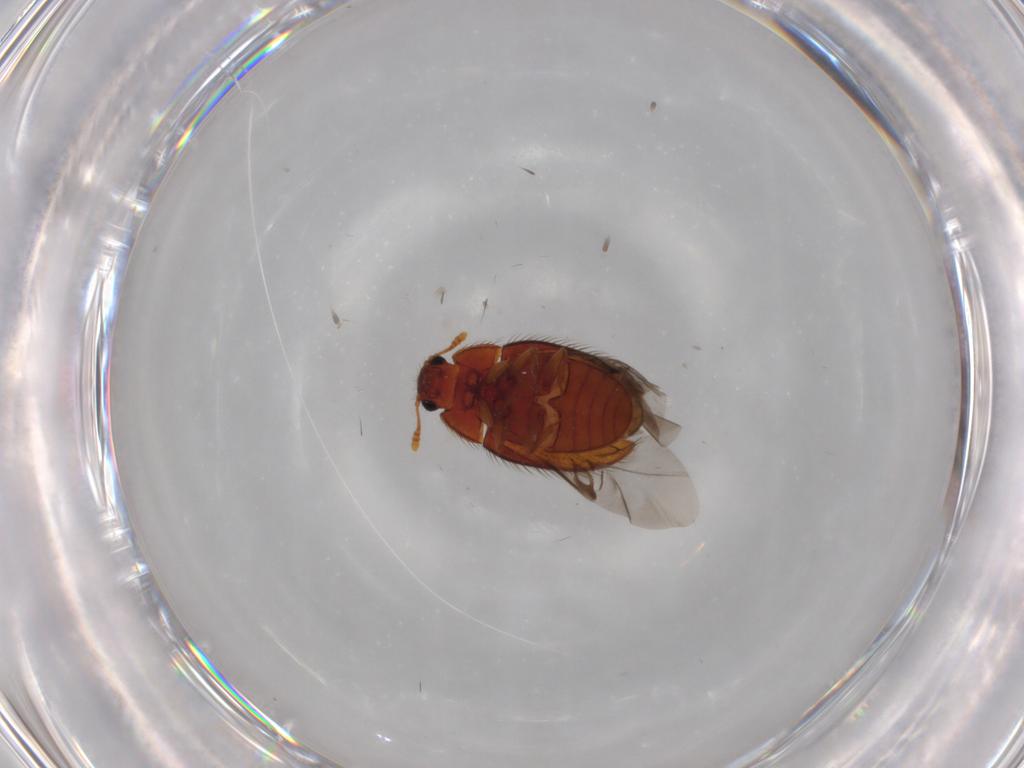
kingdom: Animalia
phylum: Arthropoda
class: Insecta
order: Coleoptera
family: Biphyllidae
